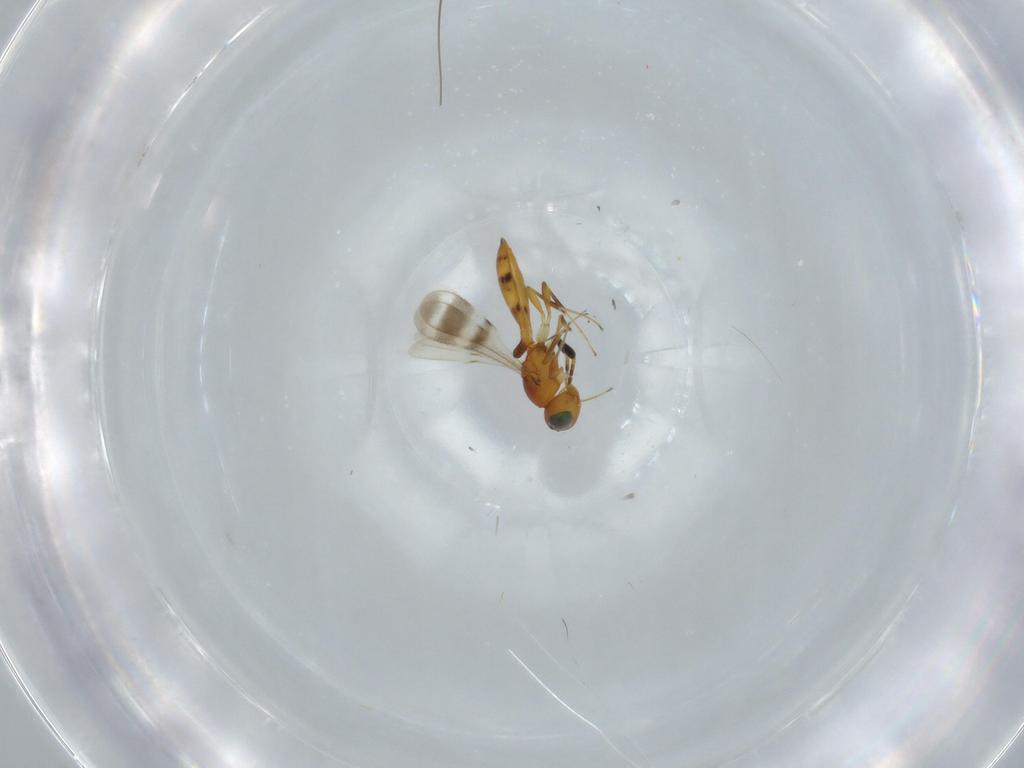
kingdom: Animalia
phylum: Arthropoda
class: Insecta
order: Hymenoptera
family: Scelionidae
